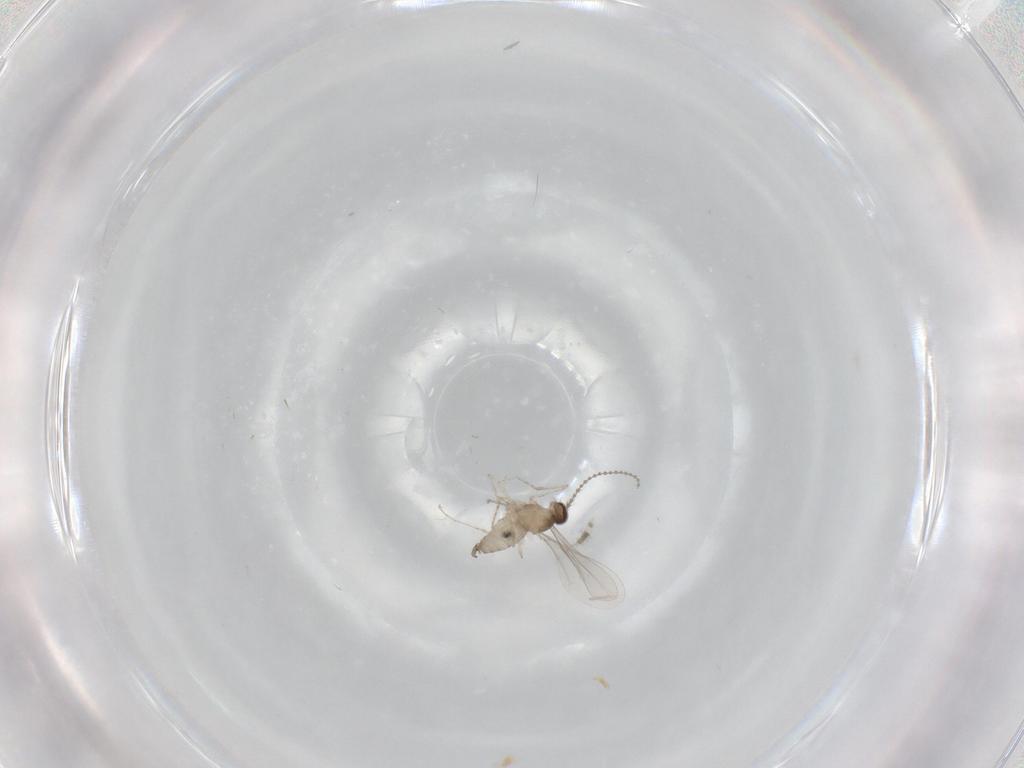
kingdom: Animalia
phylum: Arthropoda
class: Insecta
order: Diptera
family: Cecidomyiidae
